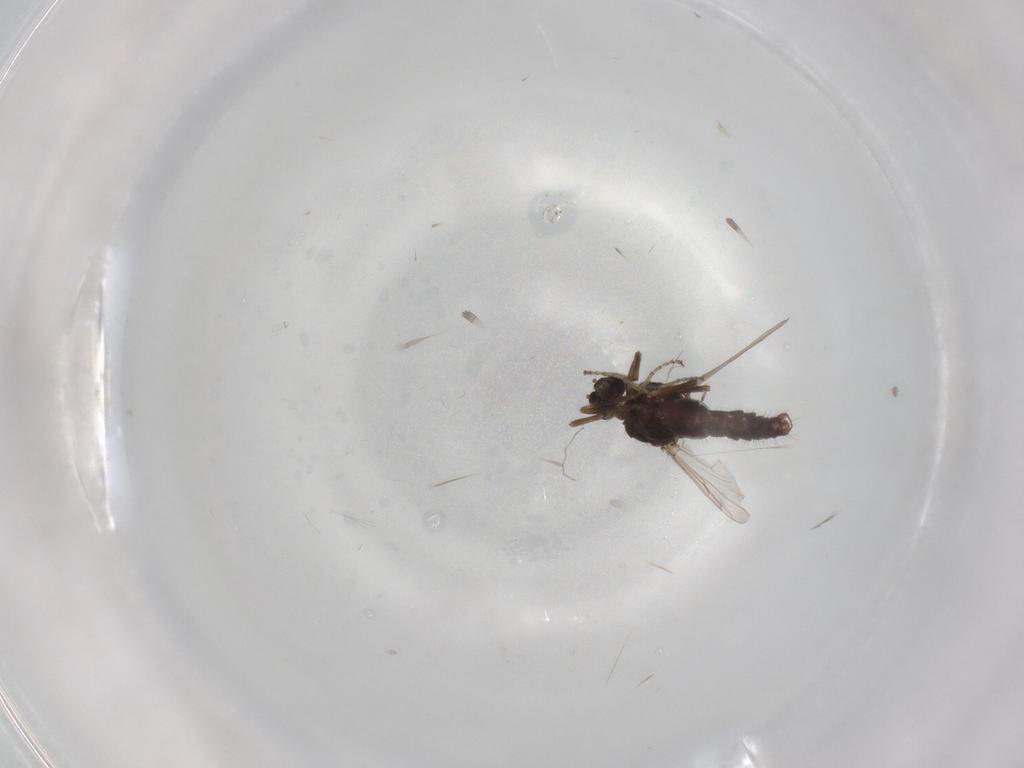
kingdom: Animalia
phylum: Arthropoda
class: Insecta
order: Diptera
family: Ceratopogonidae
